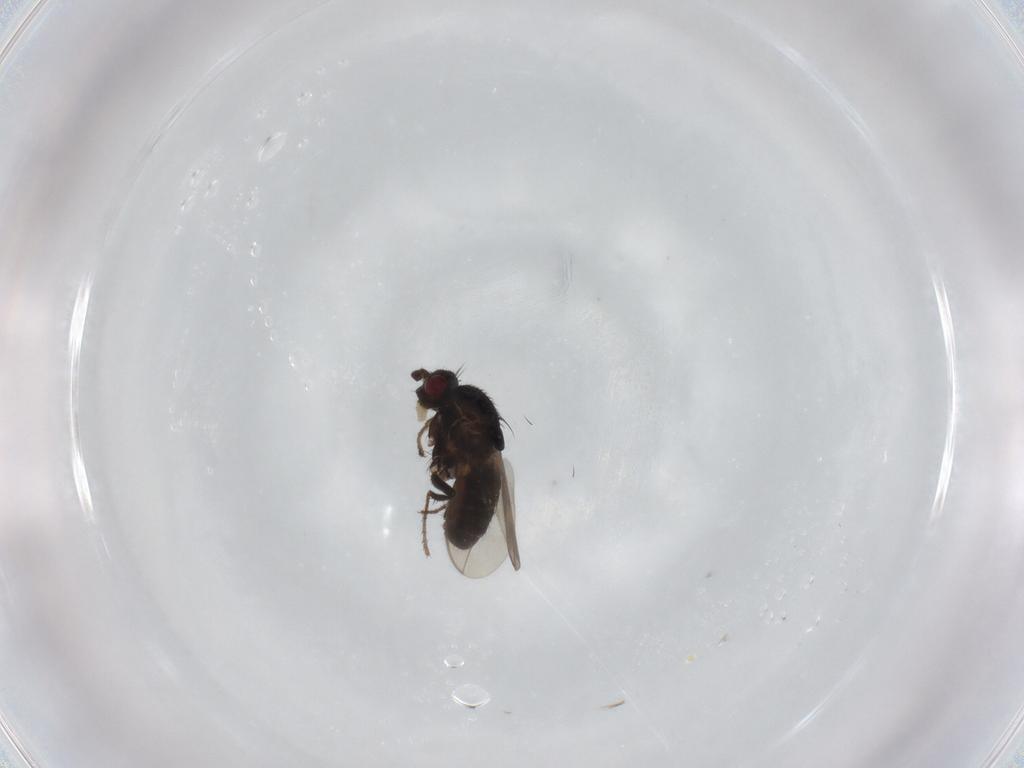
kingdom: Animalia
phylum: Arthropoda
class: Insecta
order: Diptera
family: Sphaeroceridae
